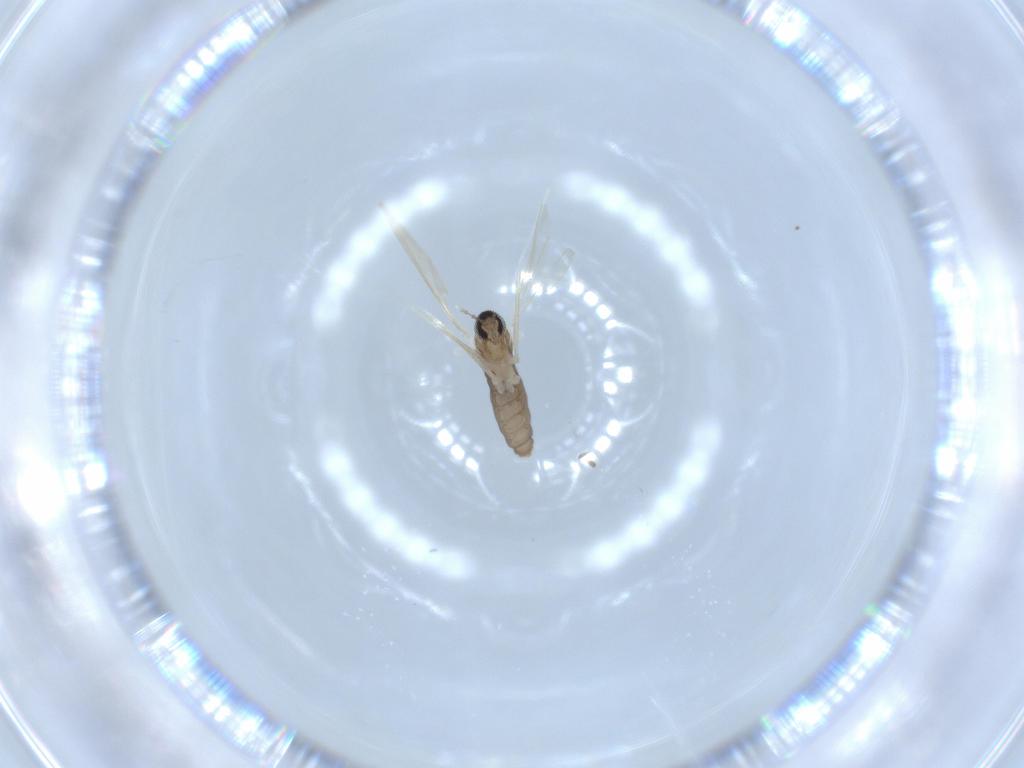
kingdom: Animalia
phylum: Arthropoda
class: Insecta
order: Diptera
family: Cecidomyiidae
